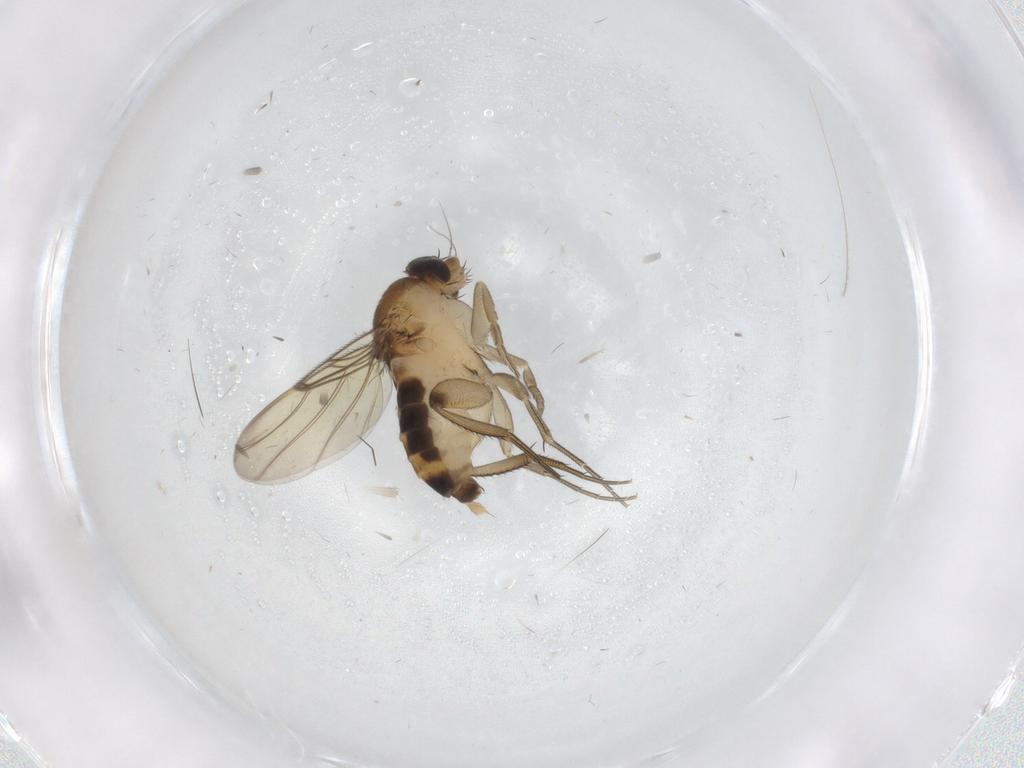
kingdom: Animalia
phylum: Arthropoda
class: Insecta
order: Diptera
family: Phoridae
